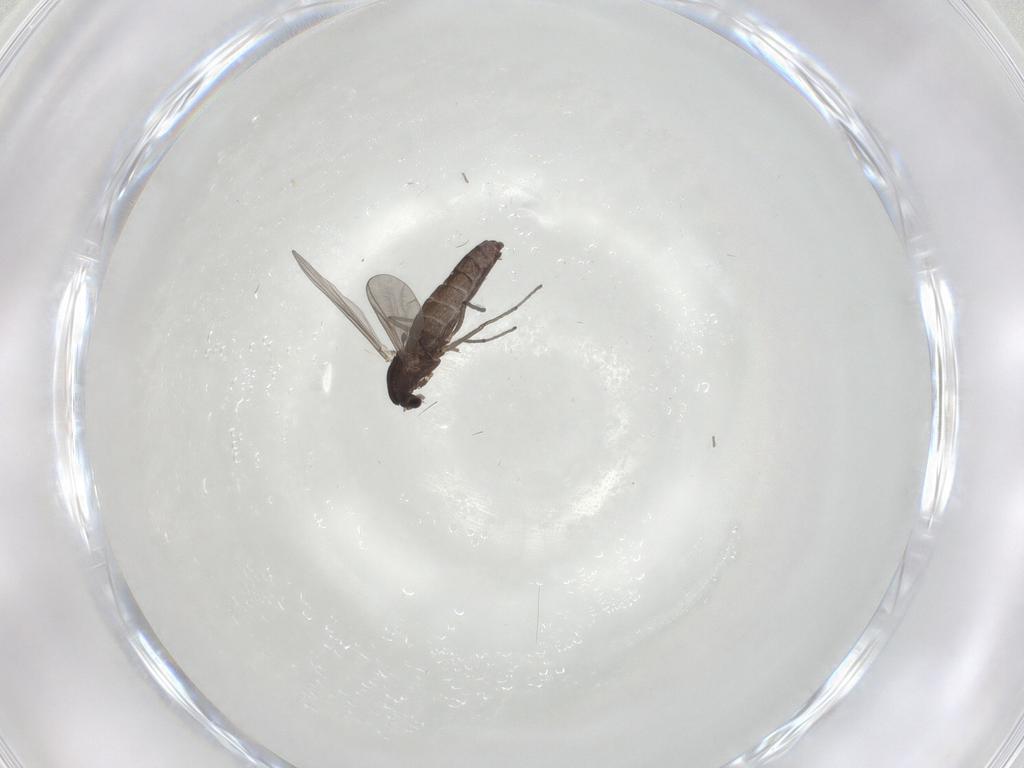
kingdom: Animalia
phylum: Arthropoda
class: Insecta
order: Diptera
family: Chironomidae
